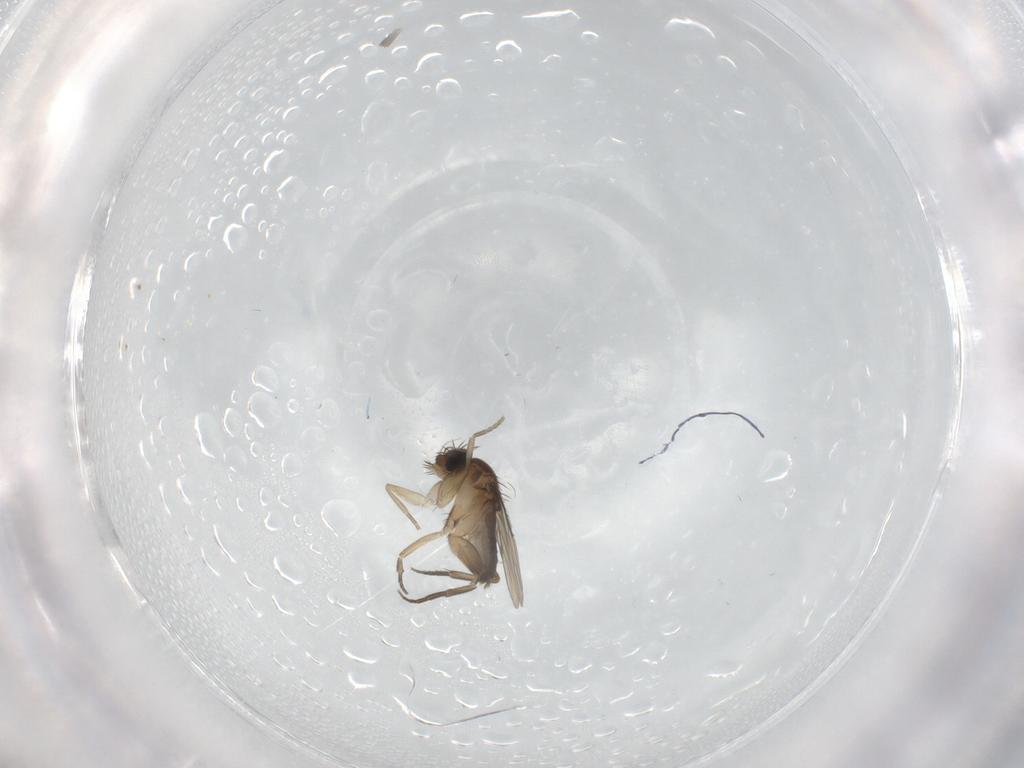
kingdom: Animalia
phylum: Arthropoda
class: Insecta
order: Diptera
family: Phoridae
